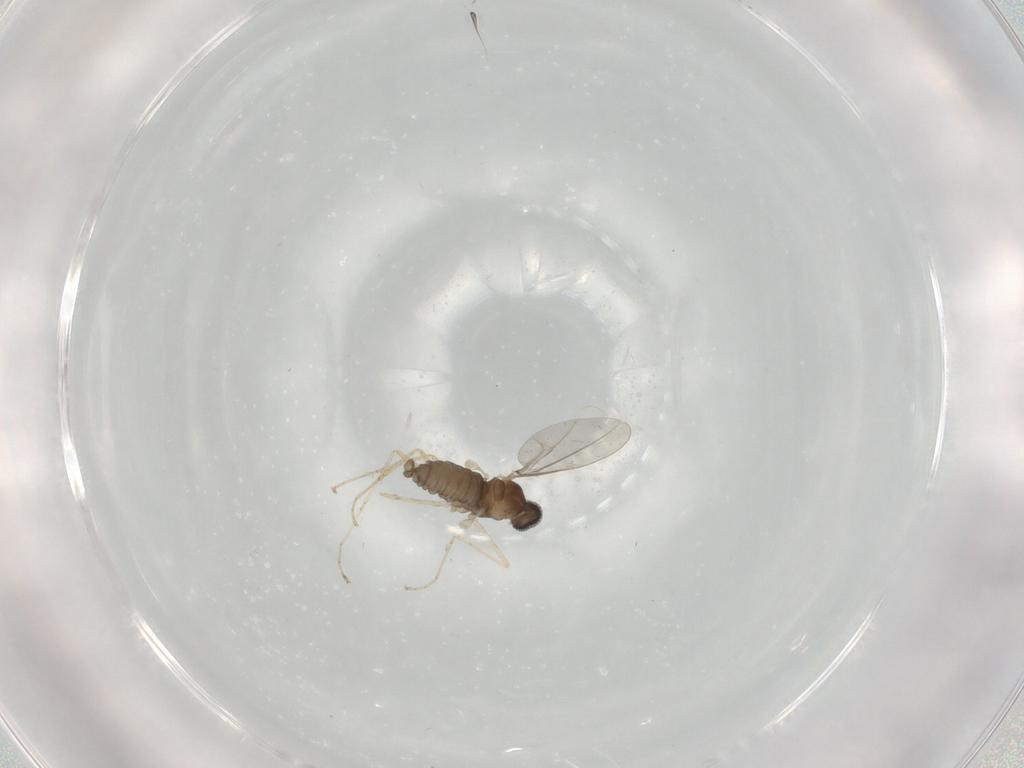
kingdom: Animalia
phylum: Arthropoda
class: Insecta
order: Diptera
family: Cecidomyiidae
